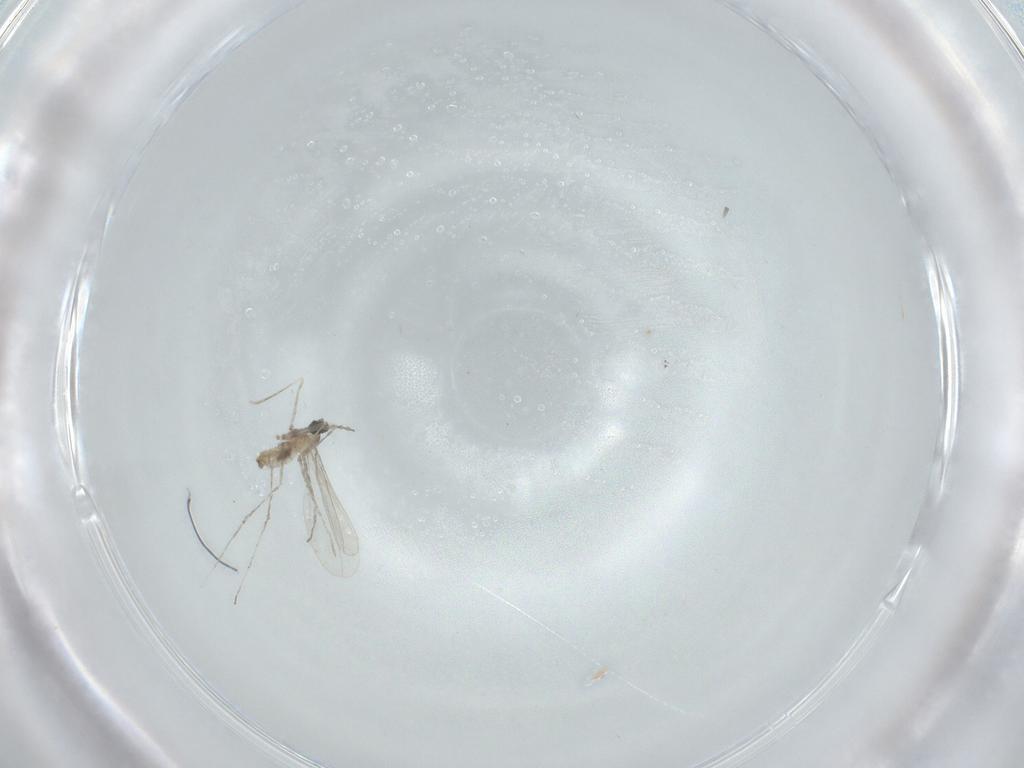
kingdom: Animalia
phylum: Arthropoda
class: Insecta
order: Diptera
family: Cecidomyiidae
